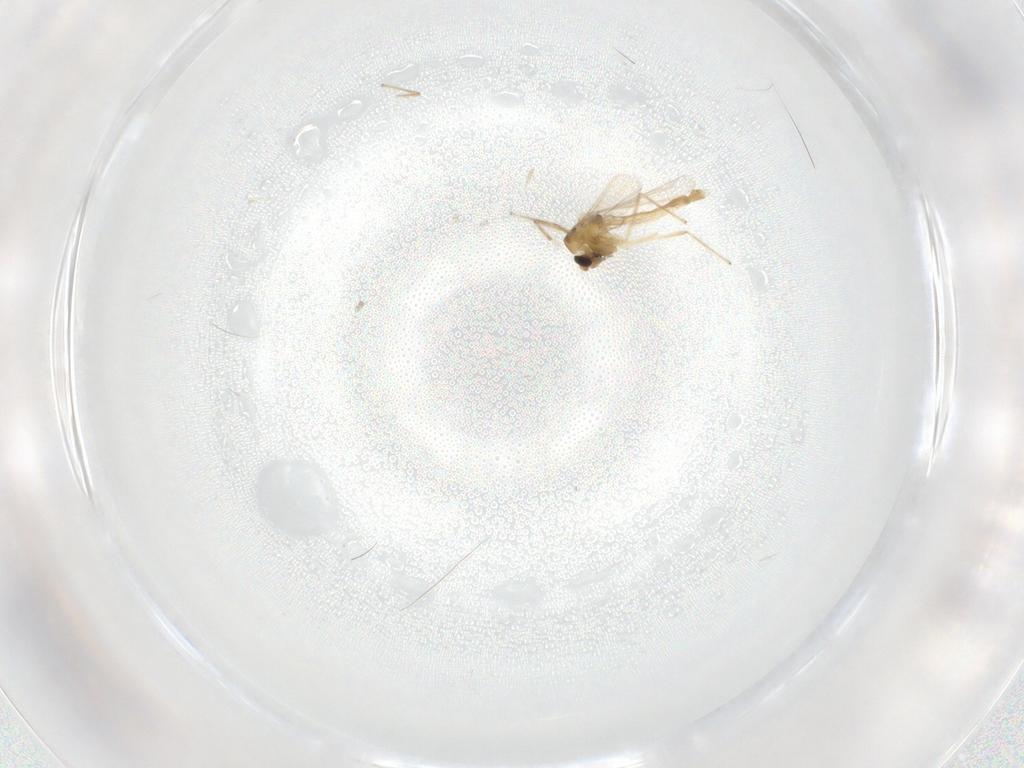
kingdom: Animalia
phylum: Arthropoda
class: Insecta
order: Diptera
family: Chironomidae
